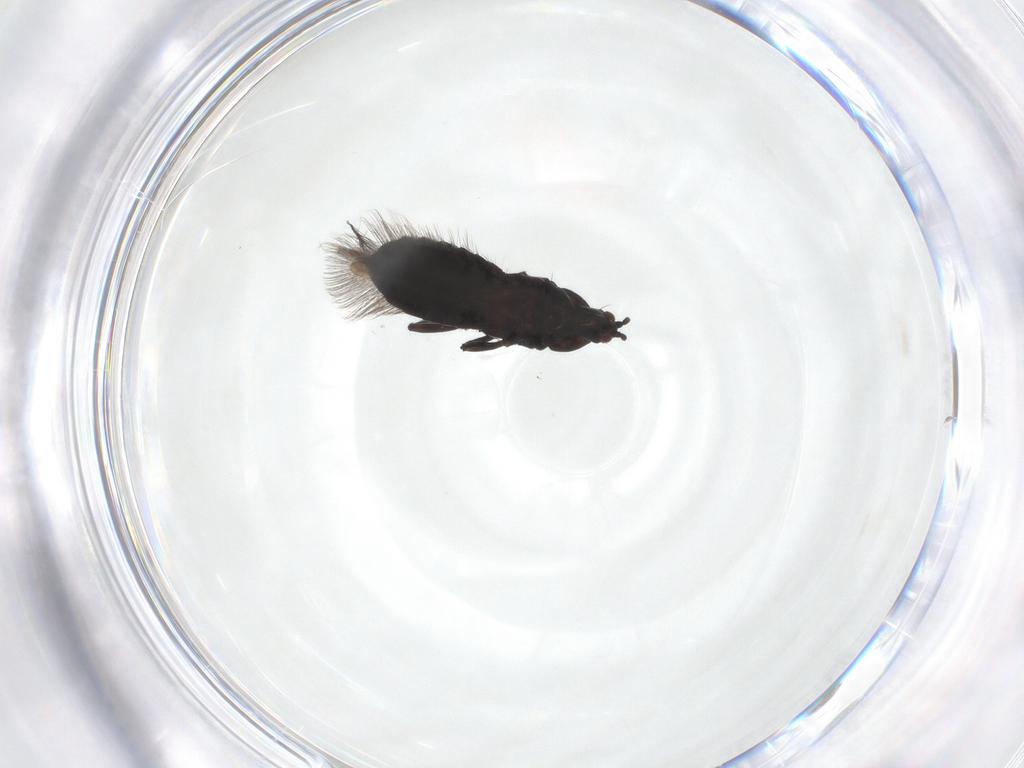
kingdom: Animalia
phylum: Arthropoda
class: Insecta
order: Thysanoptera
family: Phlaeothripidae
